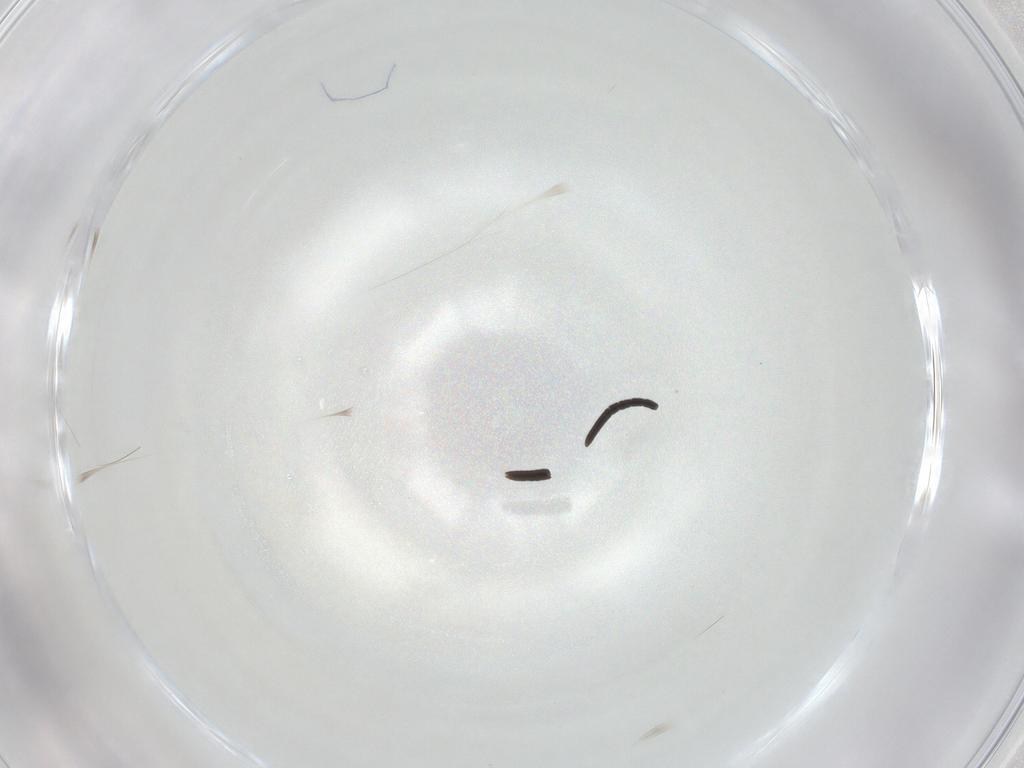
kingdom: Animalia
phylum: Arthropoda
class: Insecta
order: Hymenoptera
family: Eupelmidae
